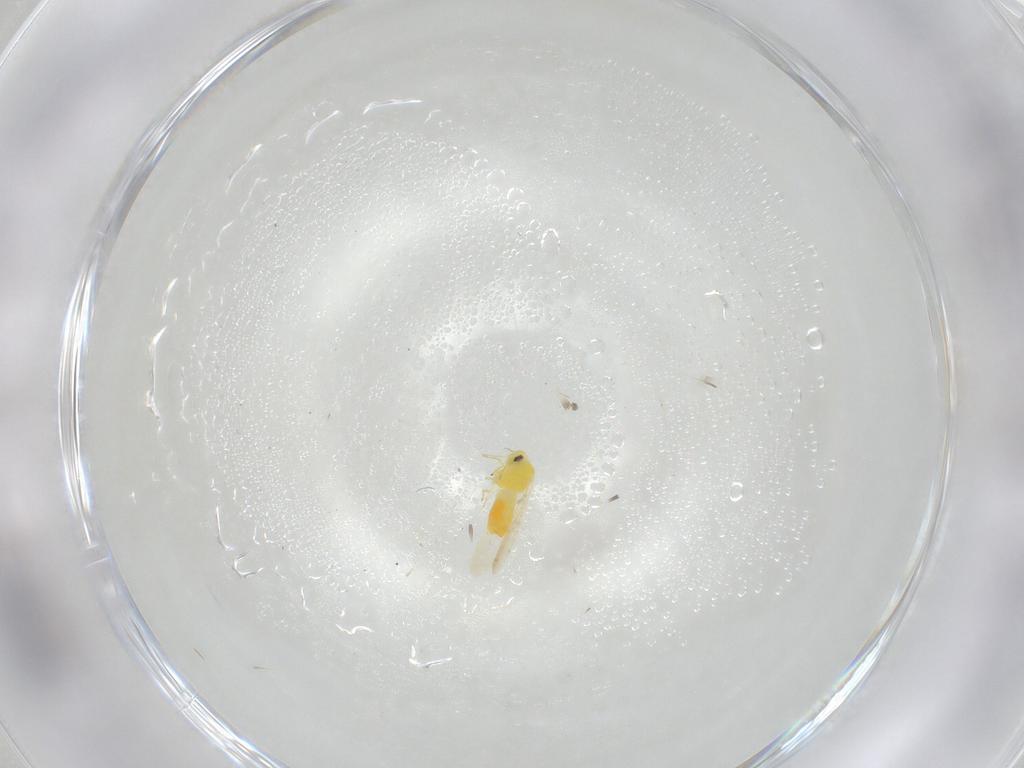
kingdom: Animalia
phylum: Arthropoda
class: Insecta
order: Hemiptera
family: Aleyrodidae
